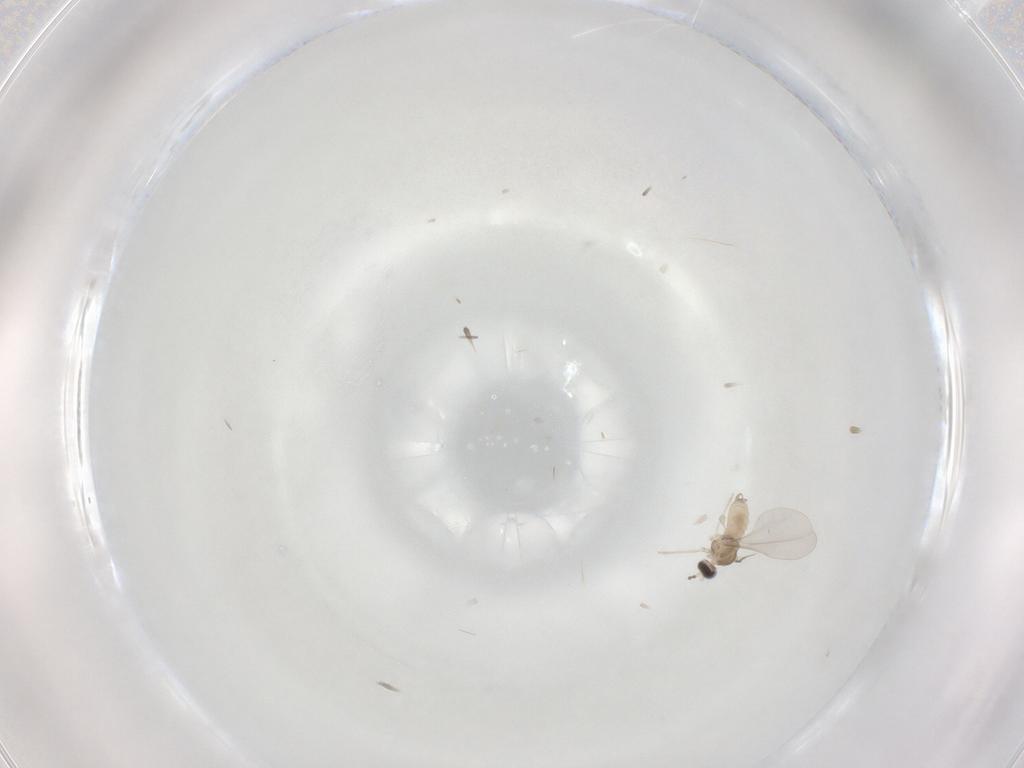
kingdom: Animalia
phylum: Arthropoda
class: Insecta
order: Diptera
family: Cecidomyiidae
